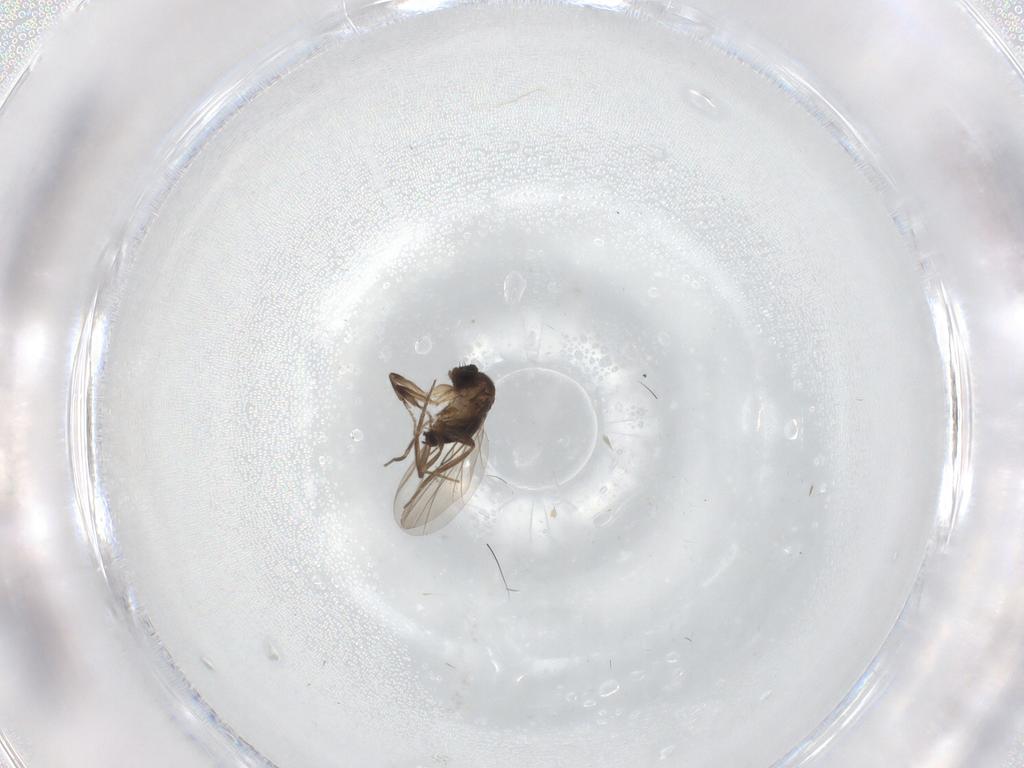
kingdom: Animalia
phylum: Arthropoda
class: Insecta
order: Diptera
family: Phoridae
